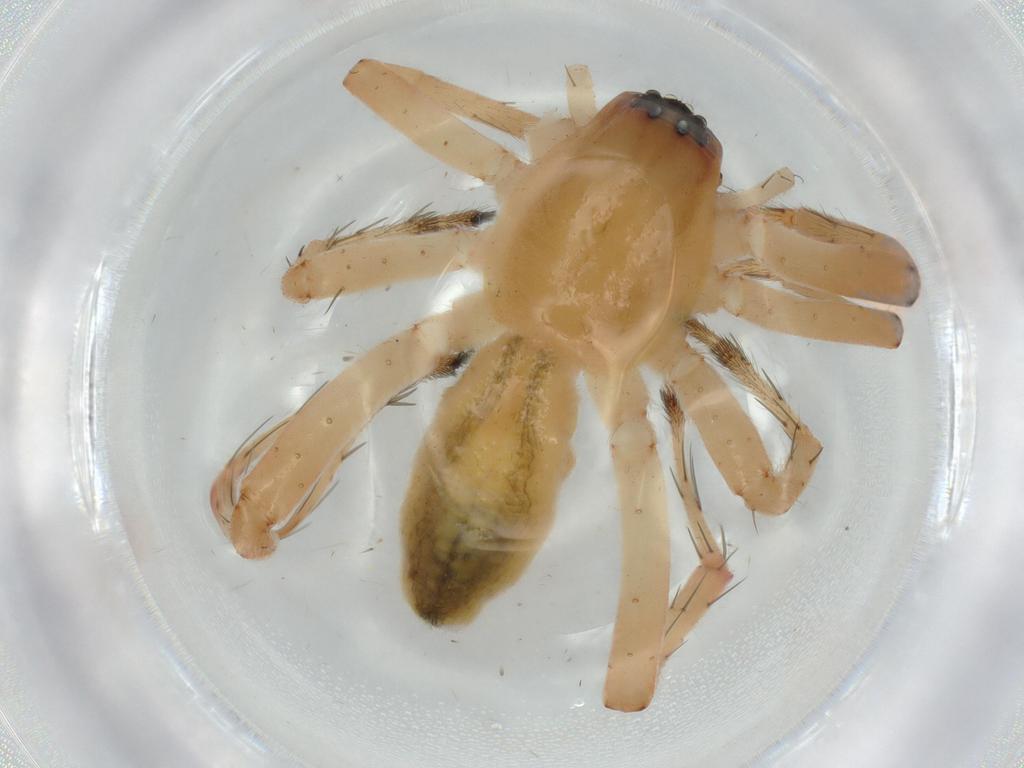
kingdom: Animalia
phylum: Arthropoda
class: Arachnida
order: Araneae
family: Anyphaenidae
